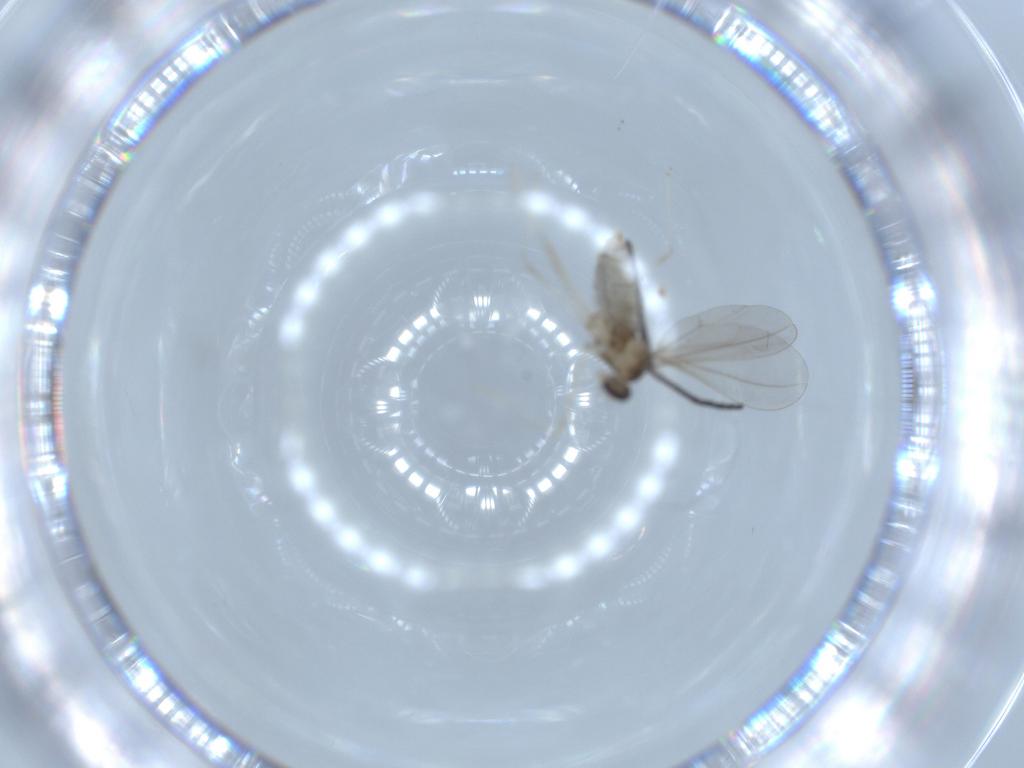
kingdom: Animalia
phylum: Arthropoda
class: Insecta
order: Diptera
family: Cecidomyiidae
